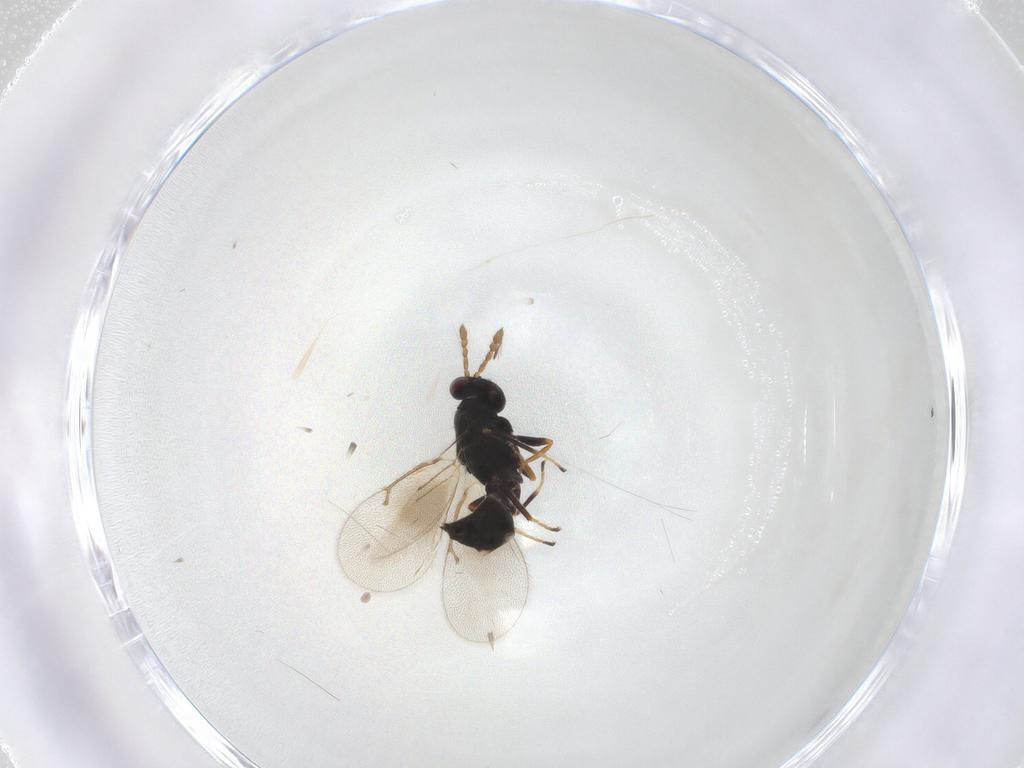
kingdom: Animalia
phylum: Arthropoda
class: Insecta
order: Hymenoptera
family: Eulophidae
